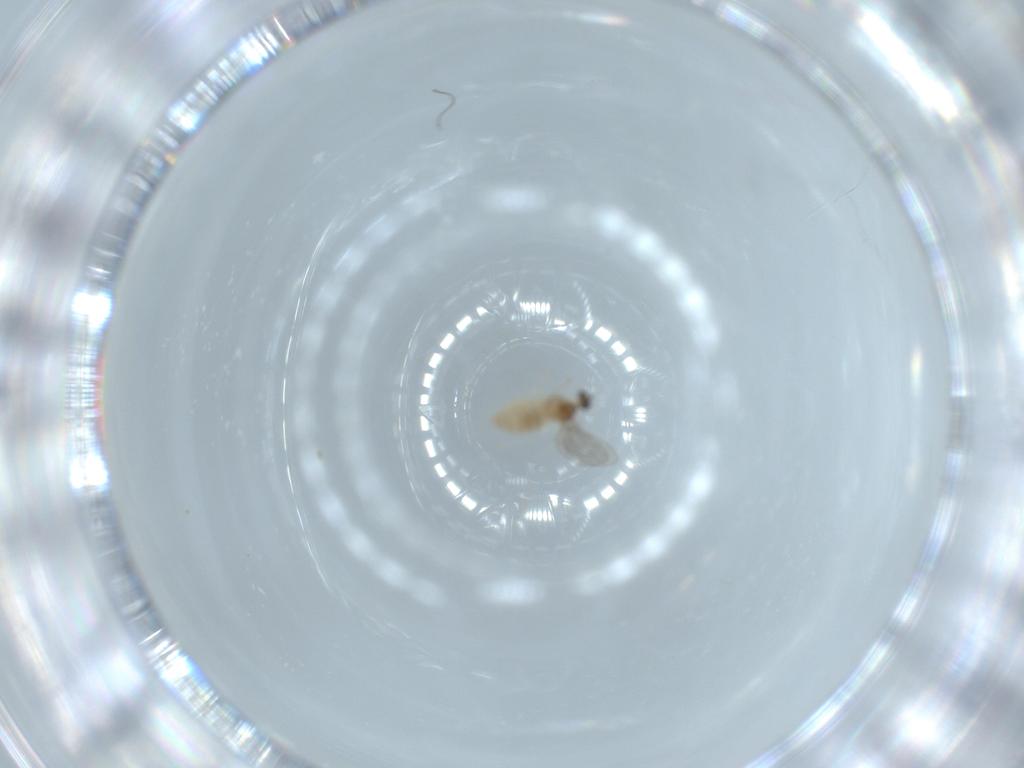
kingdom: Animalia
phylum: Arthropoda
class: Insecta
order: Diptera
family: Cecidomyiidae
